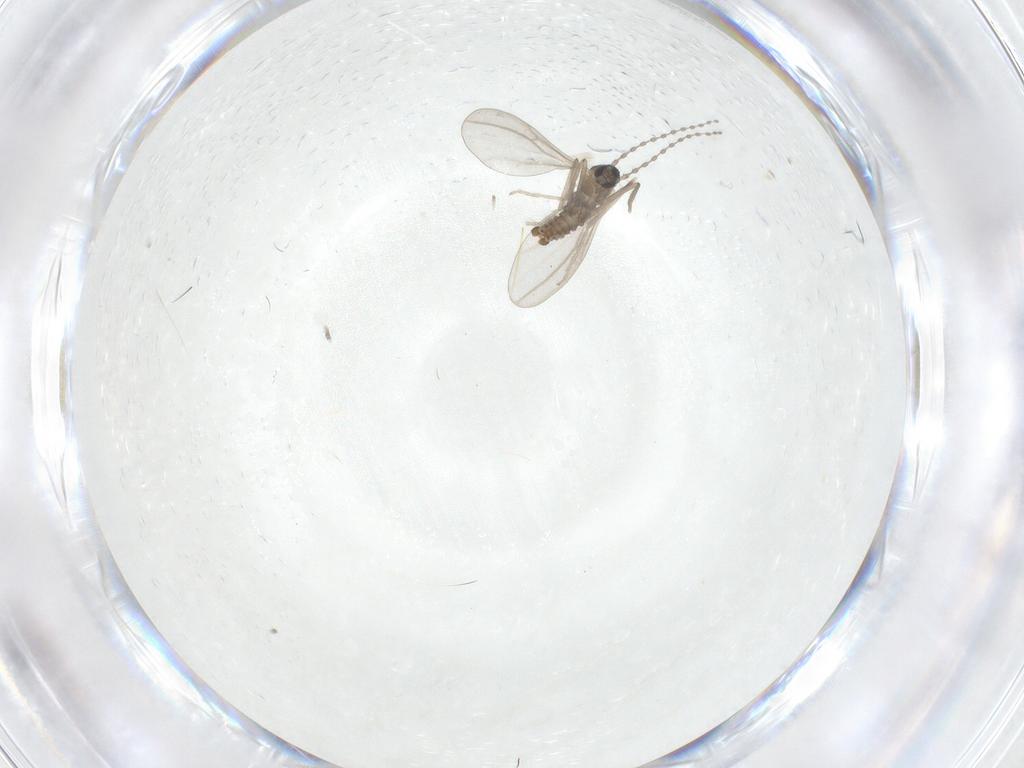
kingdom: Animalia
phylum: Arthropoda
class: Insecta
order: Diptera
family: Cecidomyiidae
